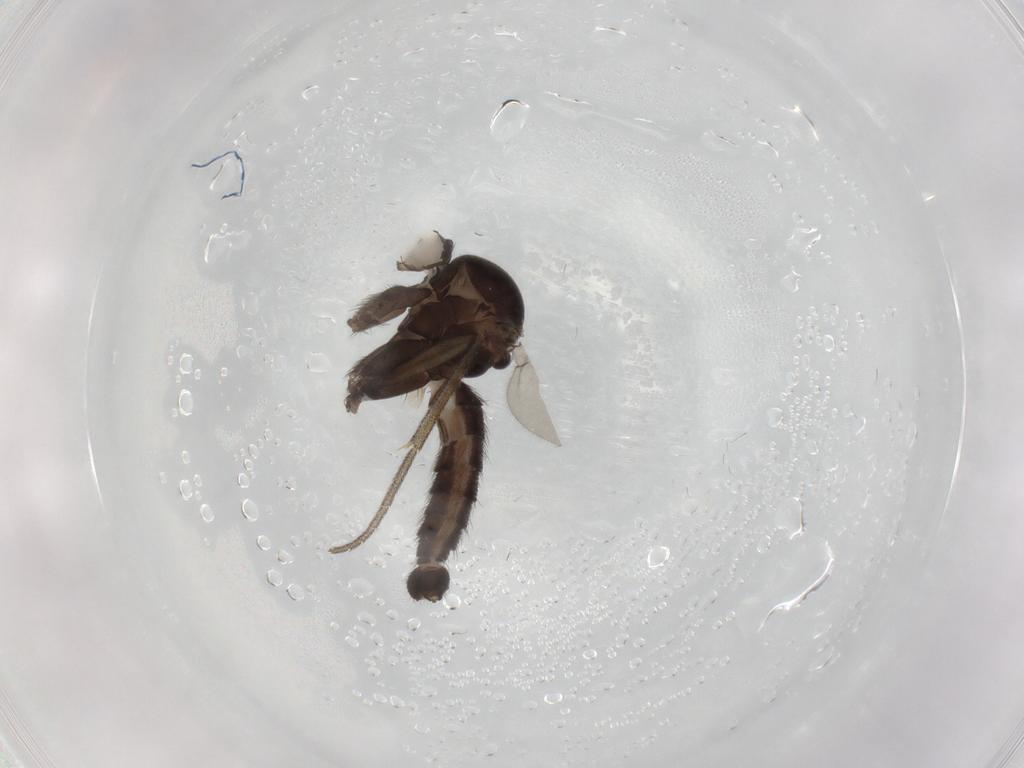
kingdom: Animalia
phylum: Arthropoda
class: Insecta
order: Diptera
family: Mycetophilidae
